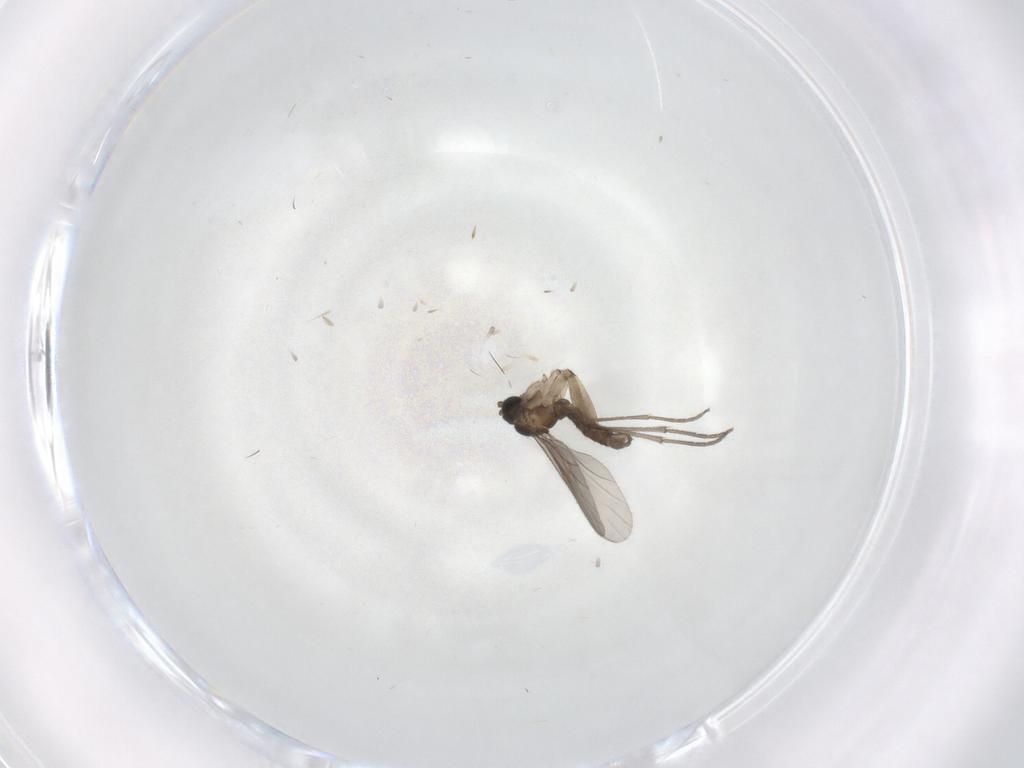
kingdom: Animalia
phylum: Arthropoda
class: Insecta
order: Diptera
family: Sciaridae
